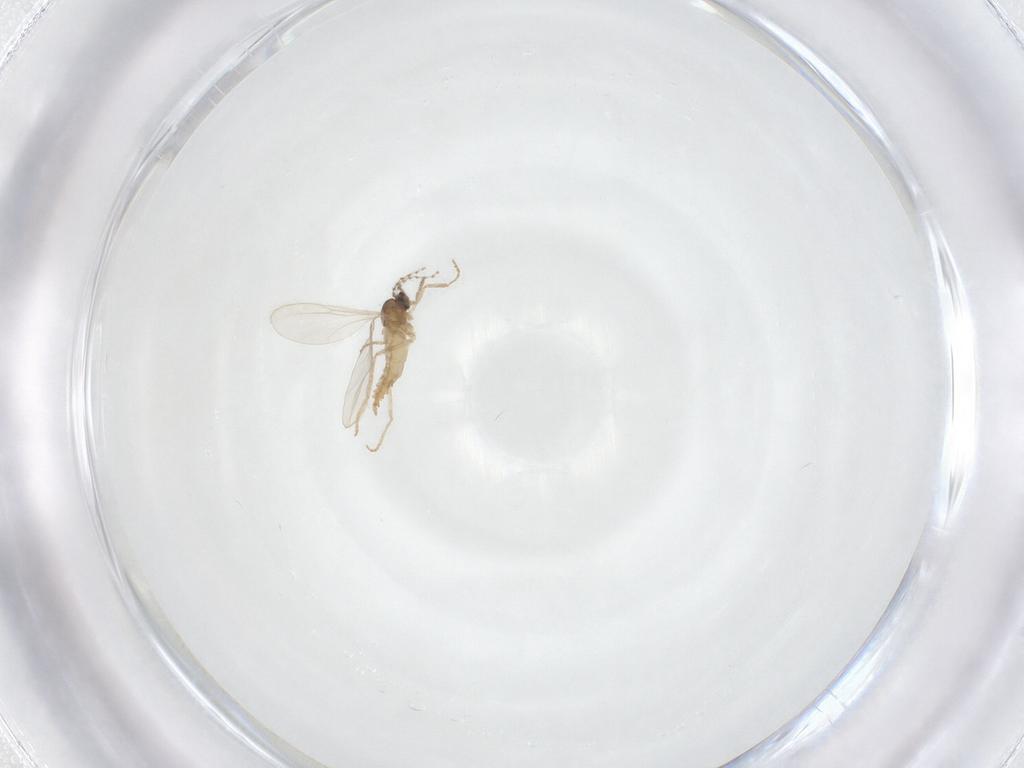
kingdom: Animalia
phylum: Arthropoda
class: Insecta
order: Diptera
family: Cecidomyiidae
